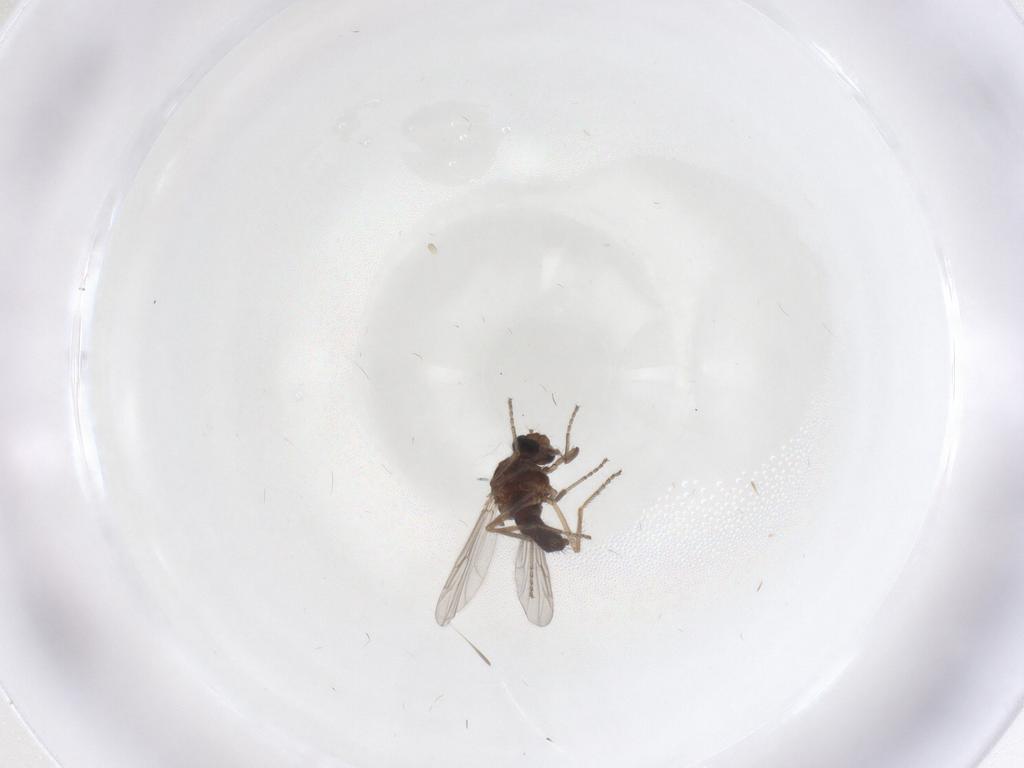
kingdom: Animalia
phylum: Arthropoda
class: Insecta
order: Diptera
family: Ceratopogonidae
